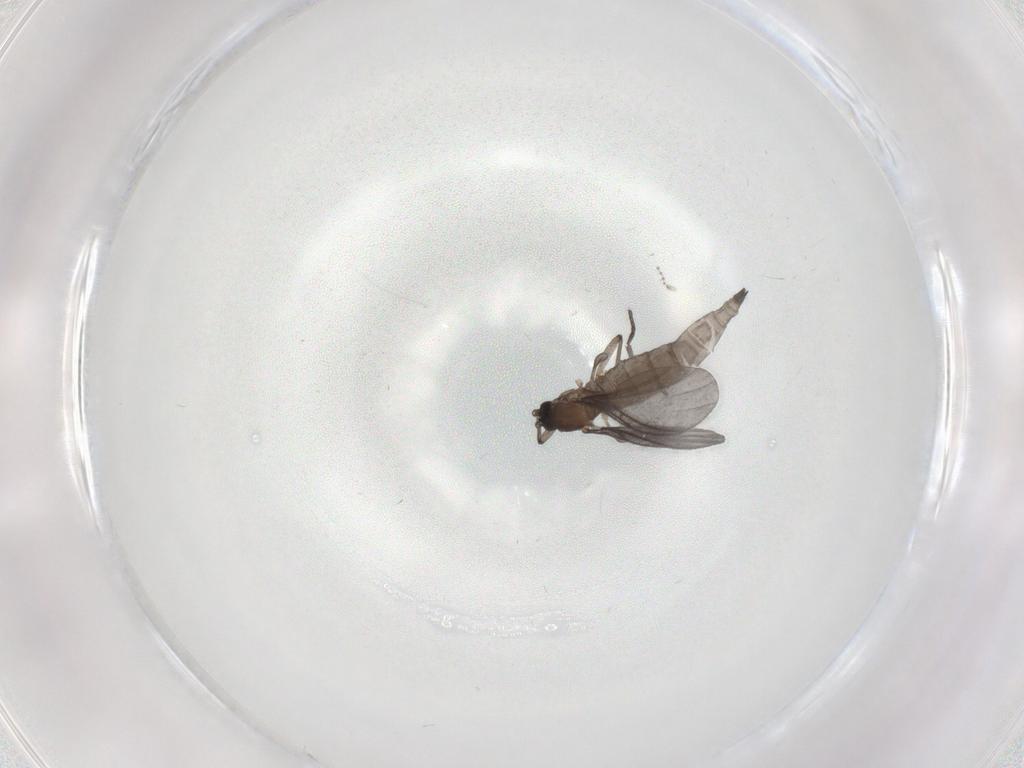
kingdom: Animalia
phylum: Arthropoda
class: Insecta
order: Diptera
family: Sciaridae
